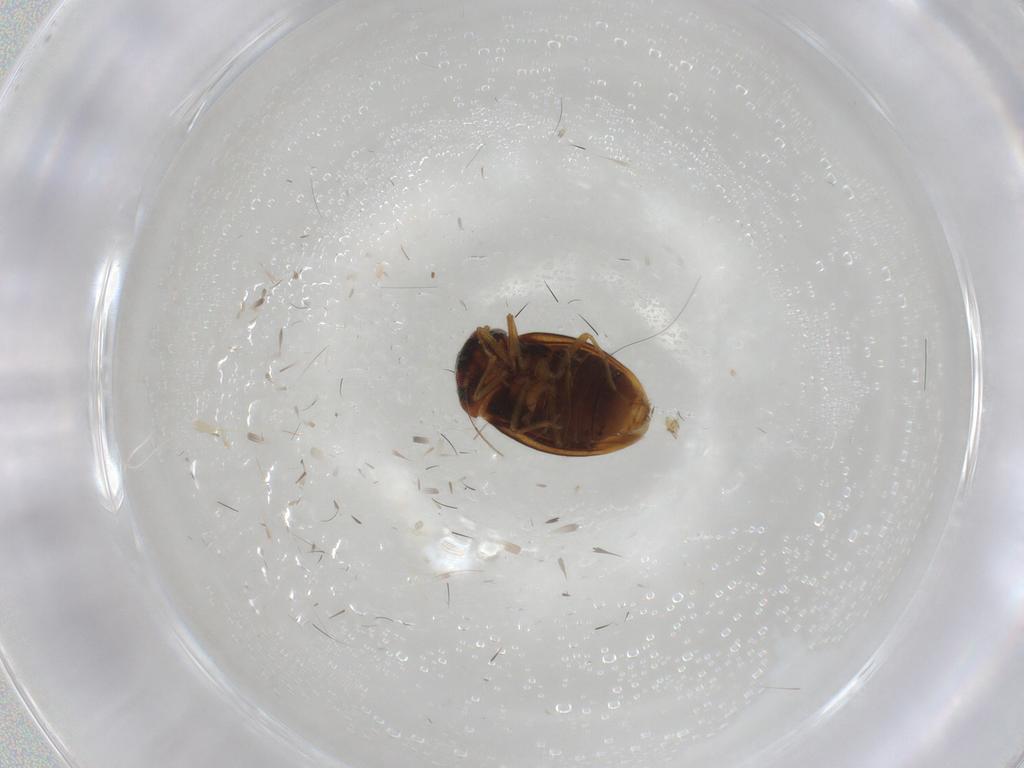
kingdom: Animalia
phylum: Arthropoda
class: Insecta
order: Hemiptera
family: Schizopteridae
